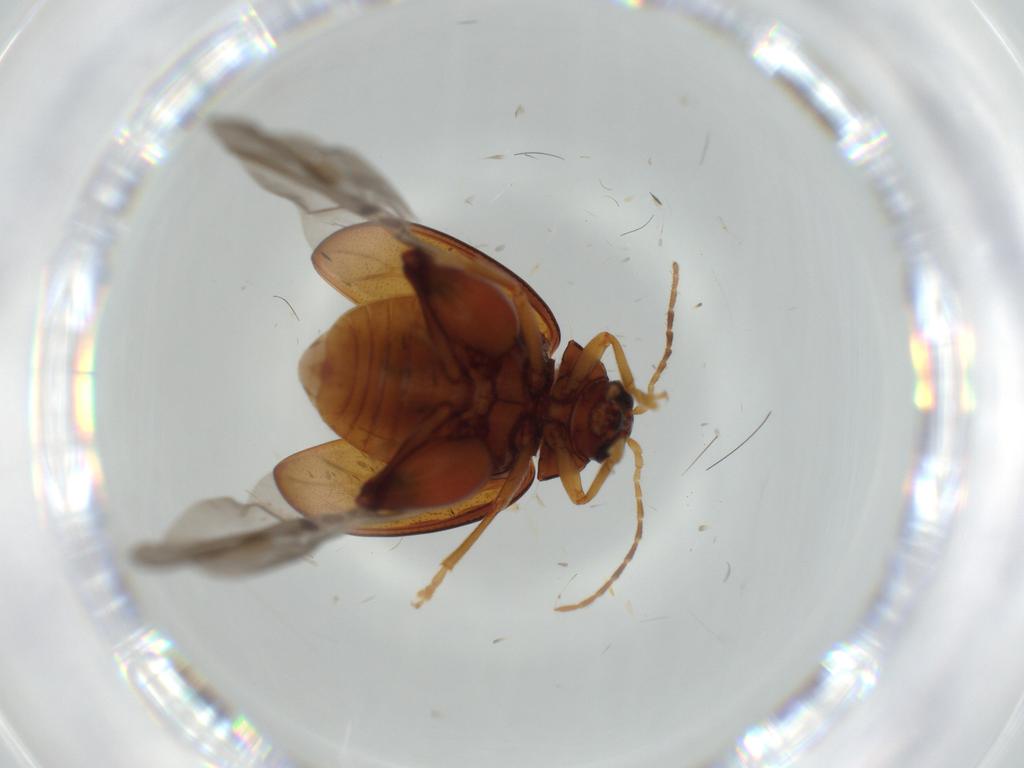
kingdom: Animalia
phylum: Arthropoda
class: Insecta
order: Coleoptera
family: Chrysomelidae
